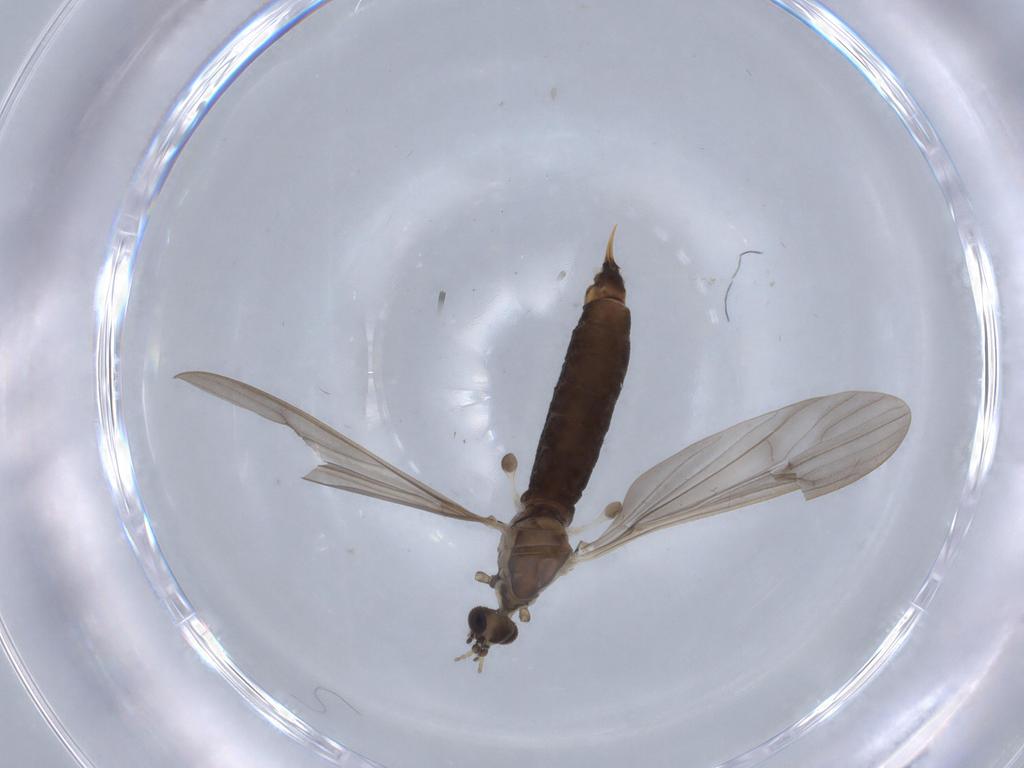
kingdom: Animalia
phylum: Arthropoda
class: Insecta
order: Diptera
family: Limoniidae
